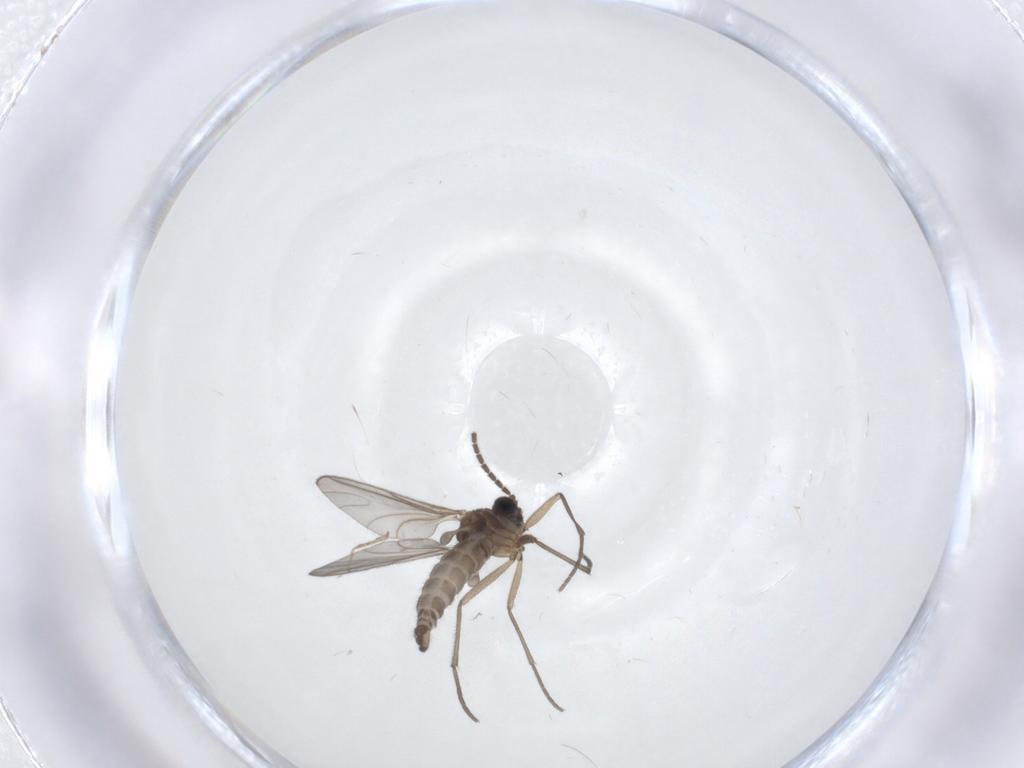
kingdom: Animalia
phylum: Arthropoda
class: Insecta
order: Diptera
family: Sciaridae
